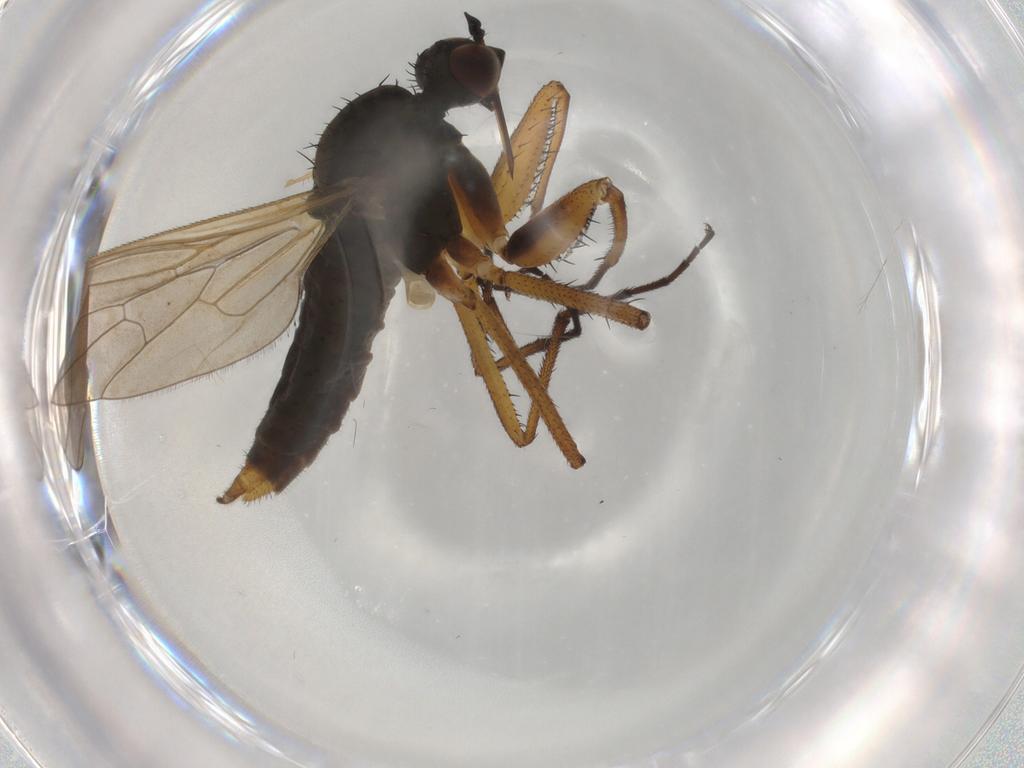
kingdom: Animalia
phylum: Arthropoda
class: Insecta
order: Diptera
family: Empididae
